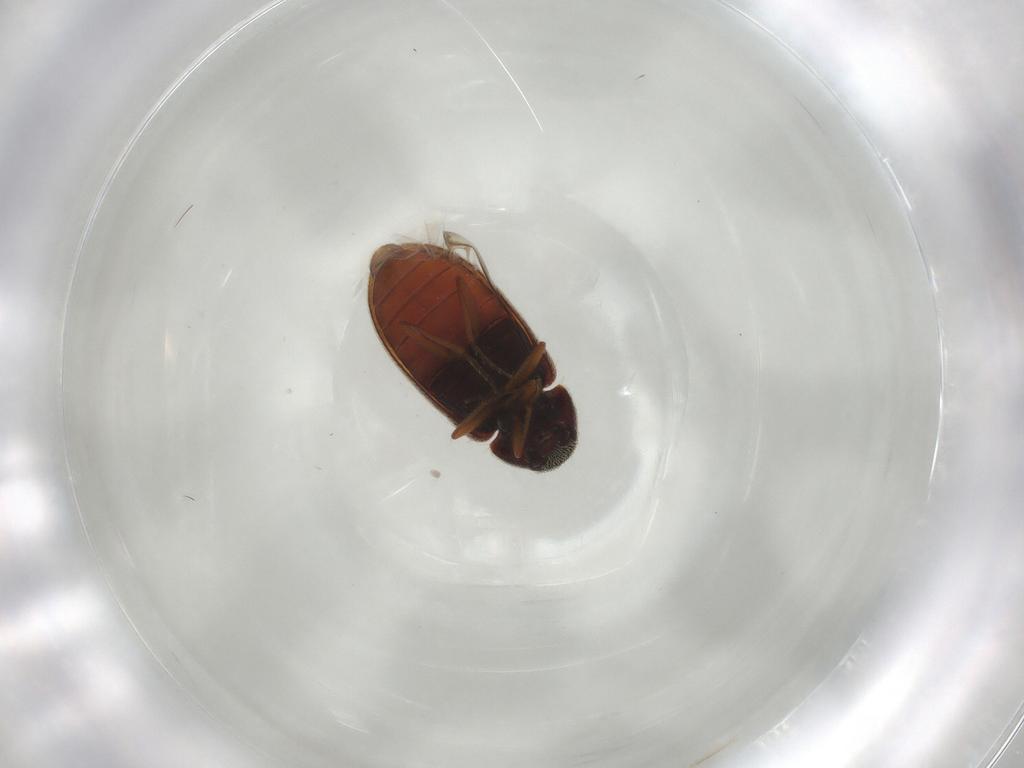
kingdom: Animalia
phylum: Arthropoda
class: Insecta
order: Coleoptera
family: Rhadalidae
